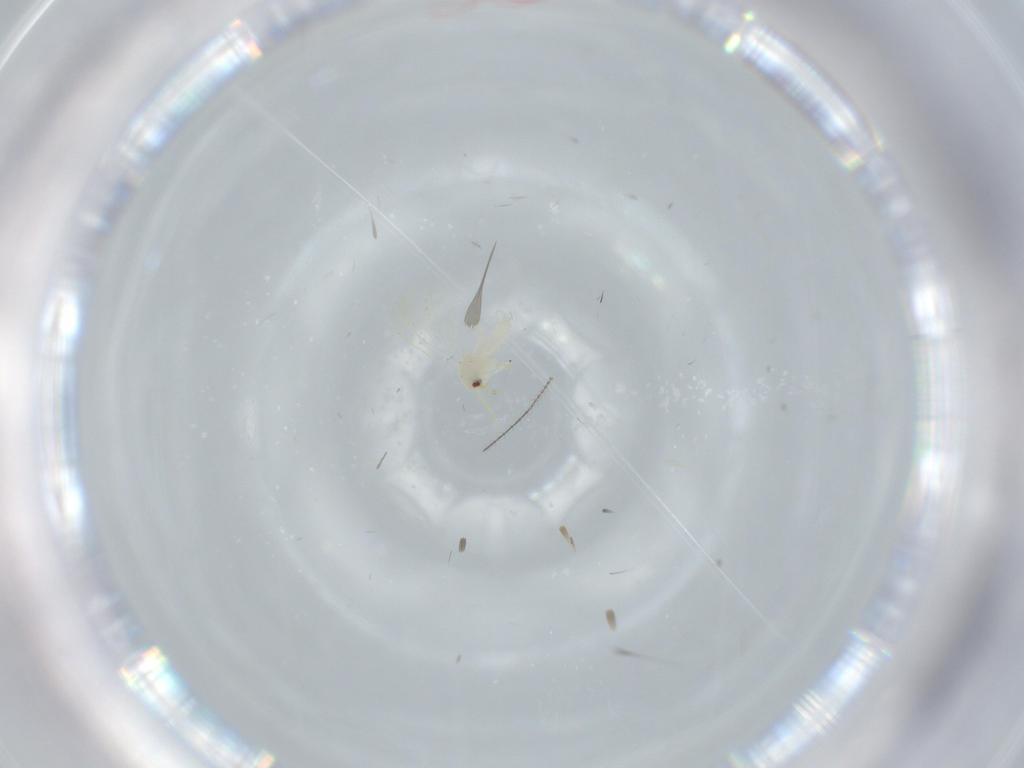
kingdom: Animalia
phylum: Arthropoda
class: Insecta
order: Hemiptera
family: Aleyrodidae
